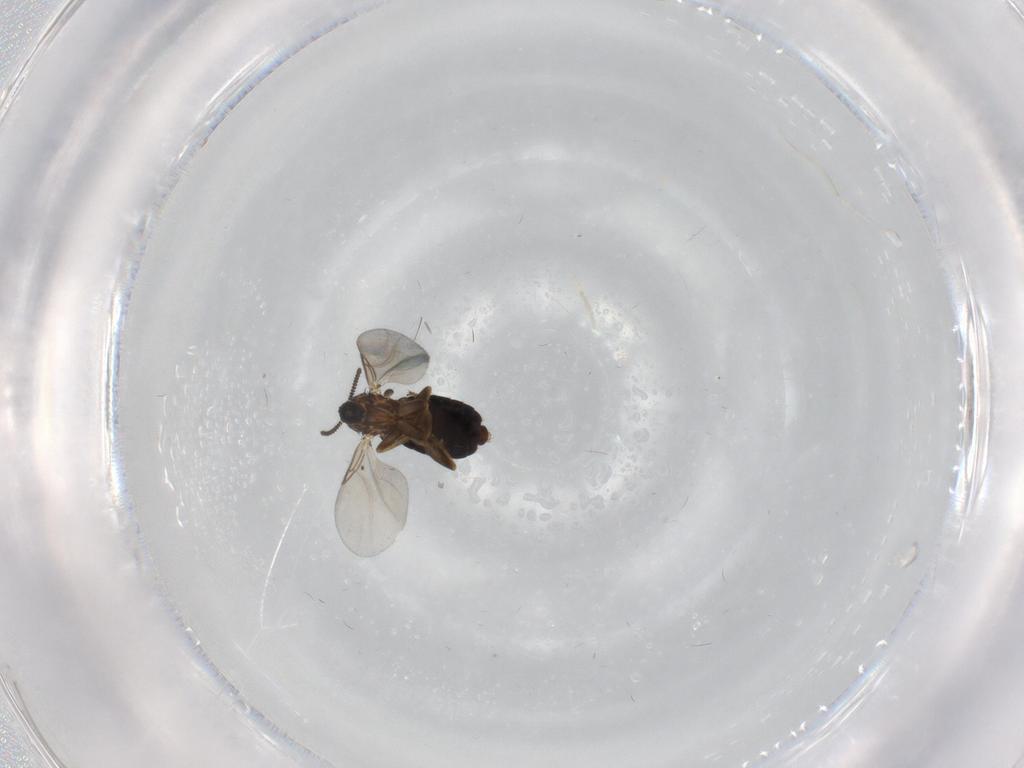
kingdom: Animalia
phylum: Arthropoda
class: Insecta
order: Diptera
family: Scatopsidae
